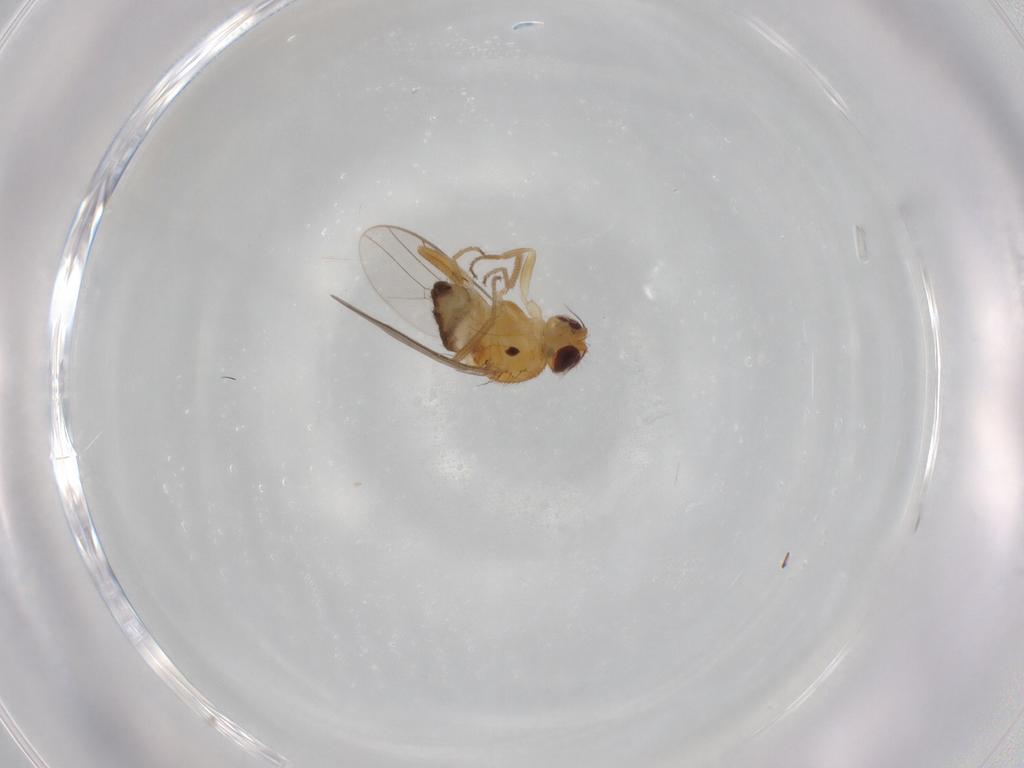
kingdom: Animalia
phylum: Arthropoda
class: Insecta
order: Diptera
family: Chloropidae
